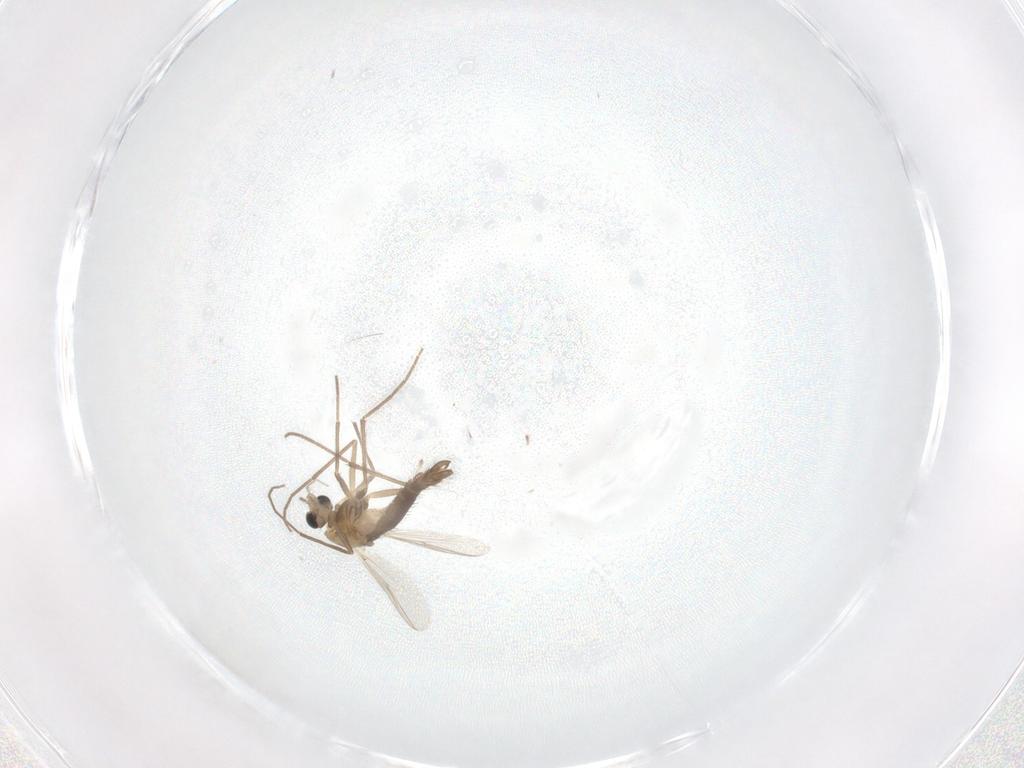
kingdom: Animalia
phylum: Arthropoda
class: Insecta
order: Diptera
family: Chironomidae
